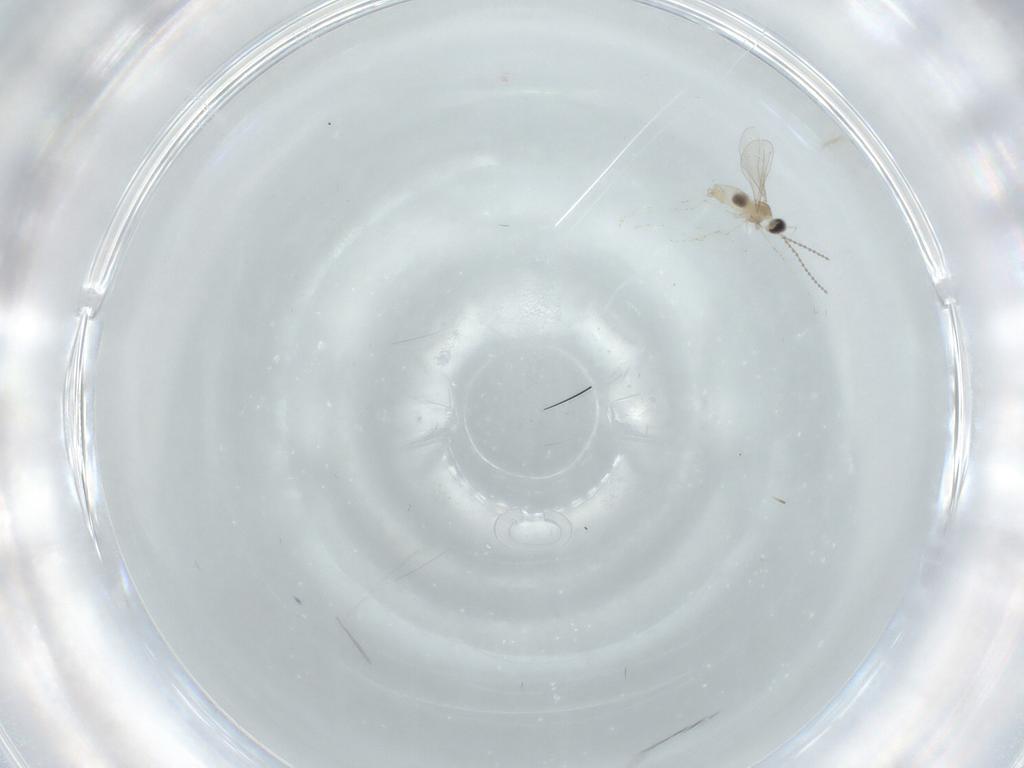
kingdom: Animalia
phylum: Arthropoda
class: Insecta
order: Diptera
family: Cecidomyiidae
